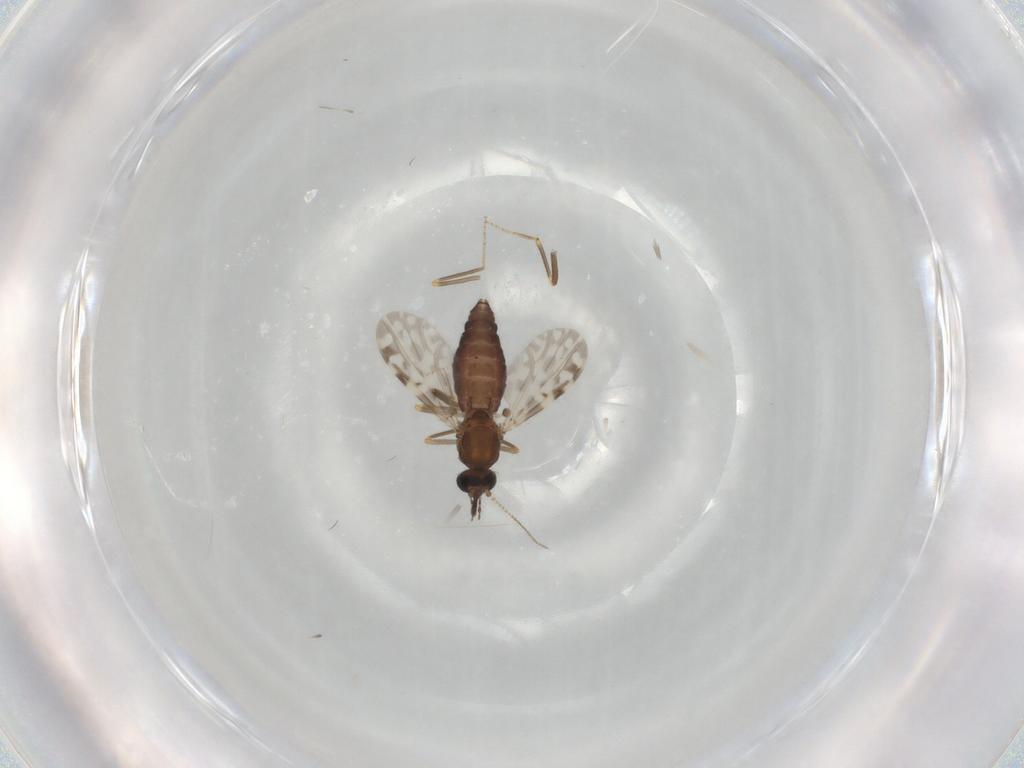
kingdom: Animalia
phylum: Arthropoda
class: Insecta
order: Diptera
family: Ceratopogonidae
